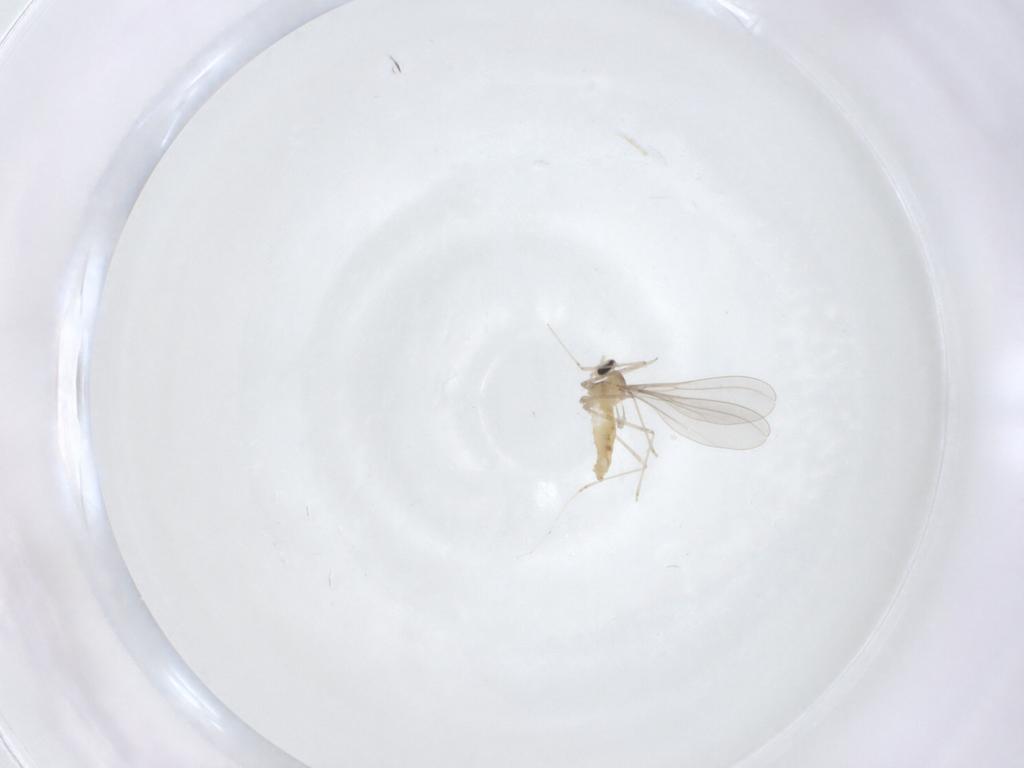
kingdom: Animalia
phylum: Arthropoda
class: Insecta
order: Diptera
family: Cecidomyiidae
